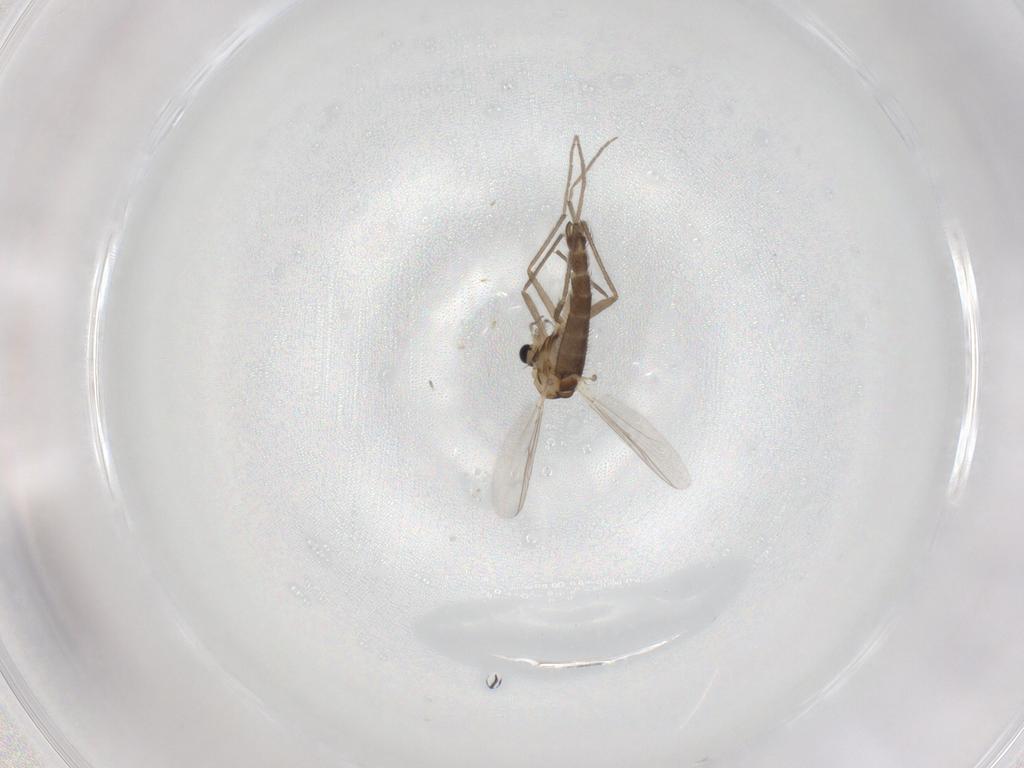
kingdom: Animalia
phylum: Arthropoda
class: Insecta
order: Diptera
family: Chironomidae
